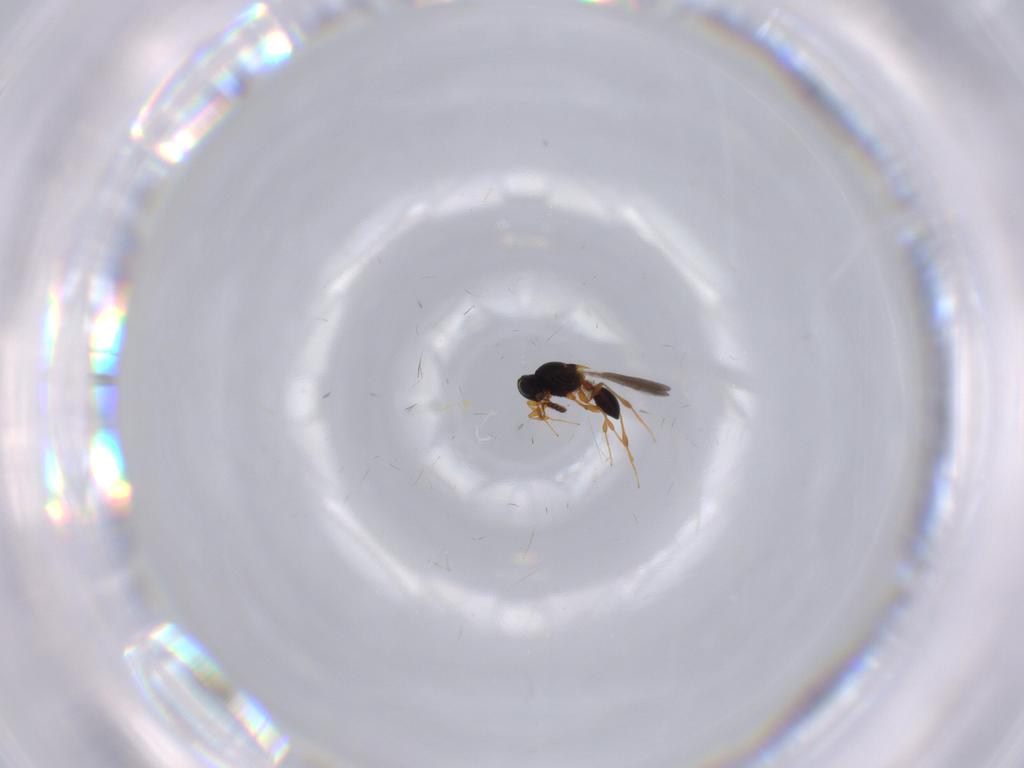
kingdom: Animalia
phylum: Arthropoda
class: Insecta
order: Hymenoptera
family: Platygastridae
